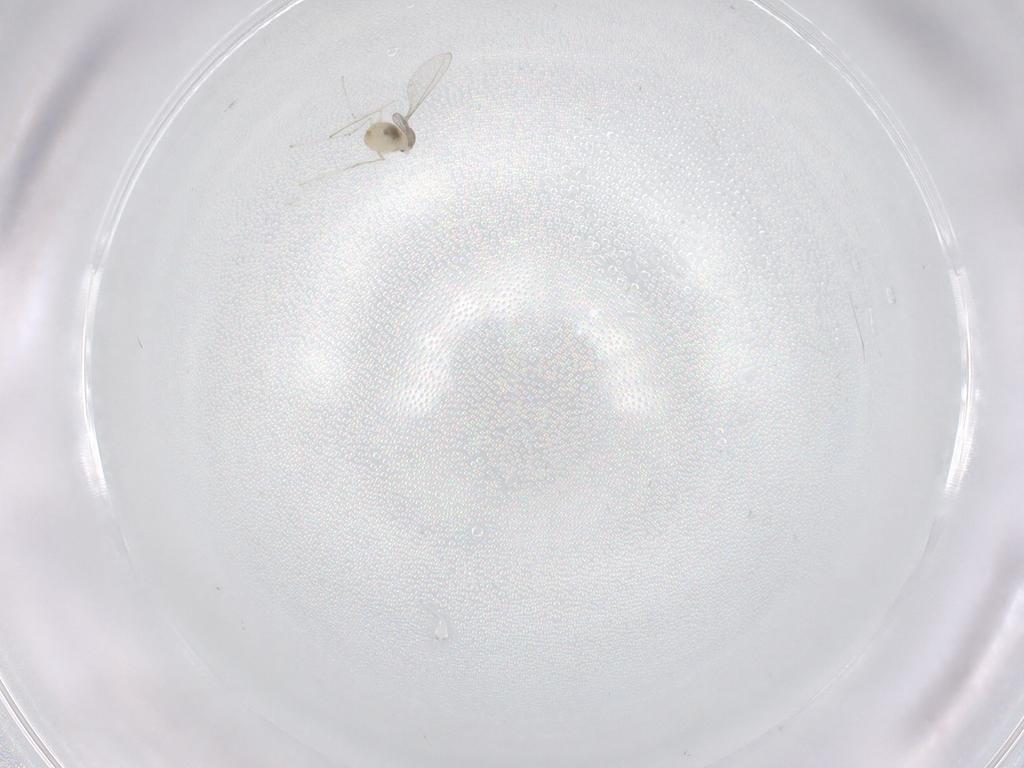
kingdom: Animalia
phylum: Arthropoda
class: Insecta
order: Diptera
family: Cecidomyiidae
